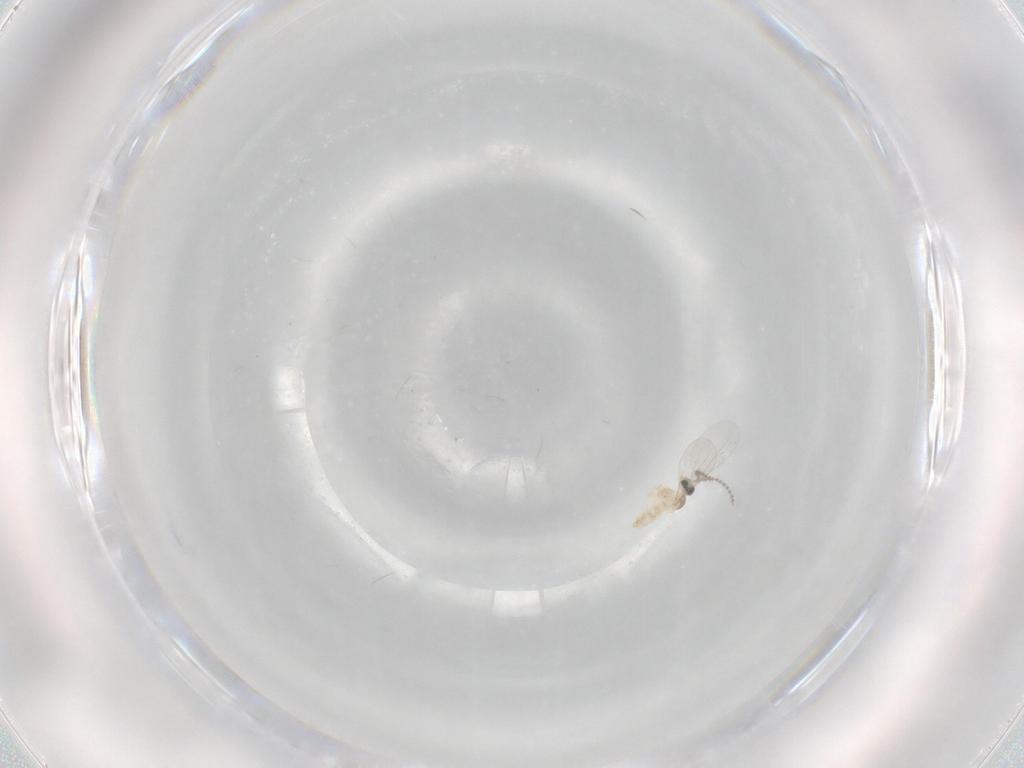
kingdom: Animalia
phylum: Arthropoda
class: Insecta
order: Diptera
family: Cecidomyiidae
